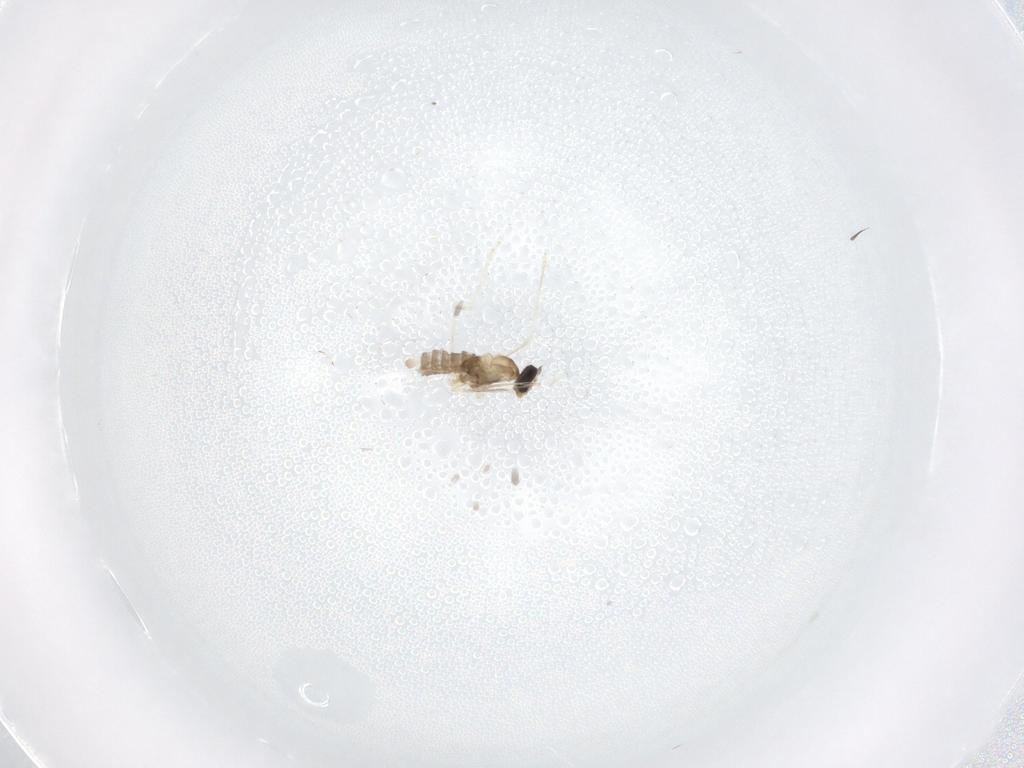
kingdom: Animalia
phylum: Arthropoda
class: Insecta
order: Diptera
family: Cecidomyiidae
